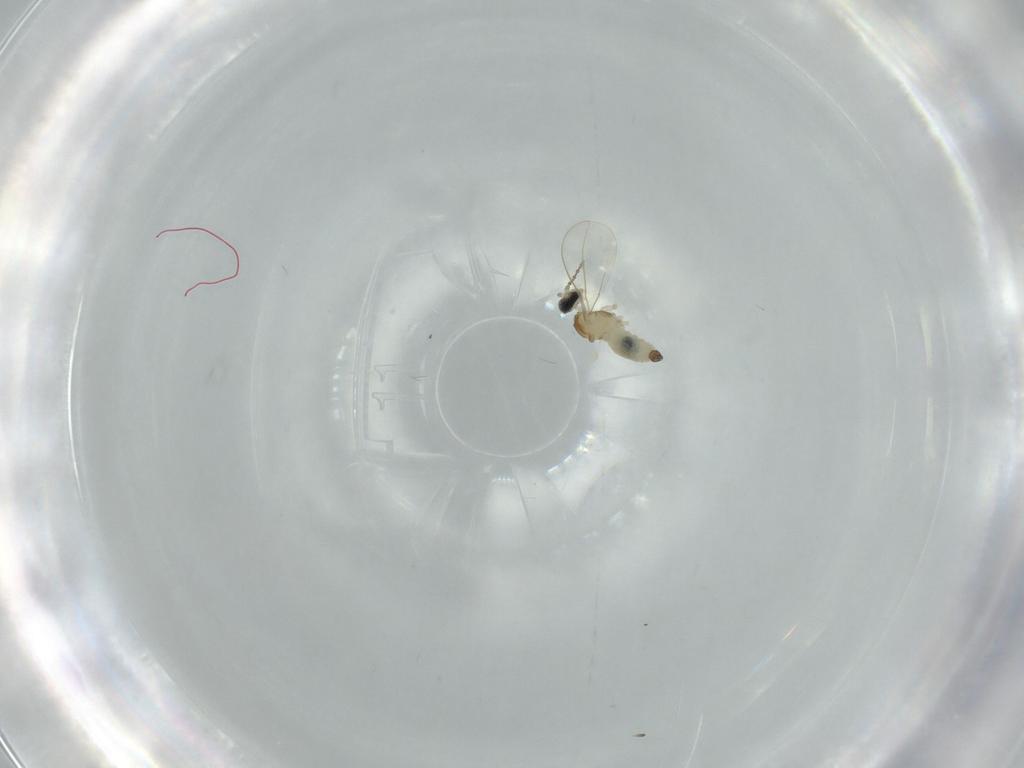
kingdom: Animalia
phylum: Arthropoda
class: Insecta
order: Diptera
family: Cecidomyiidae
